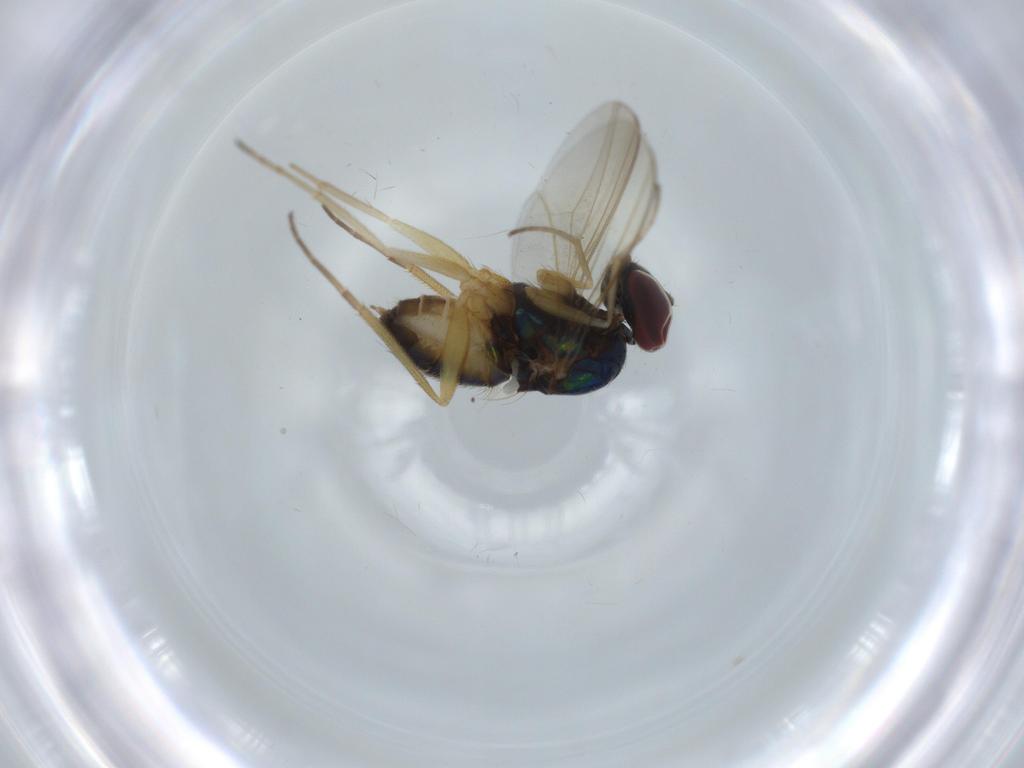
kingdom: Animalia
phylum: Arthropoda
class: Insecta
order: Diptera
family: Dolichopodidae
